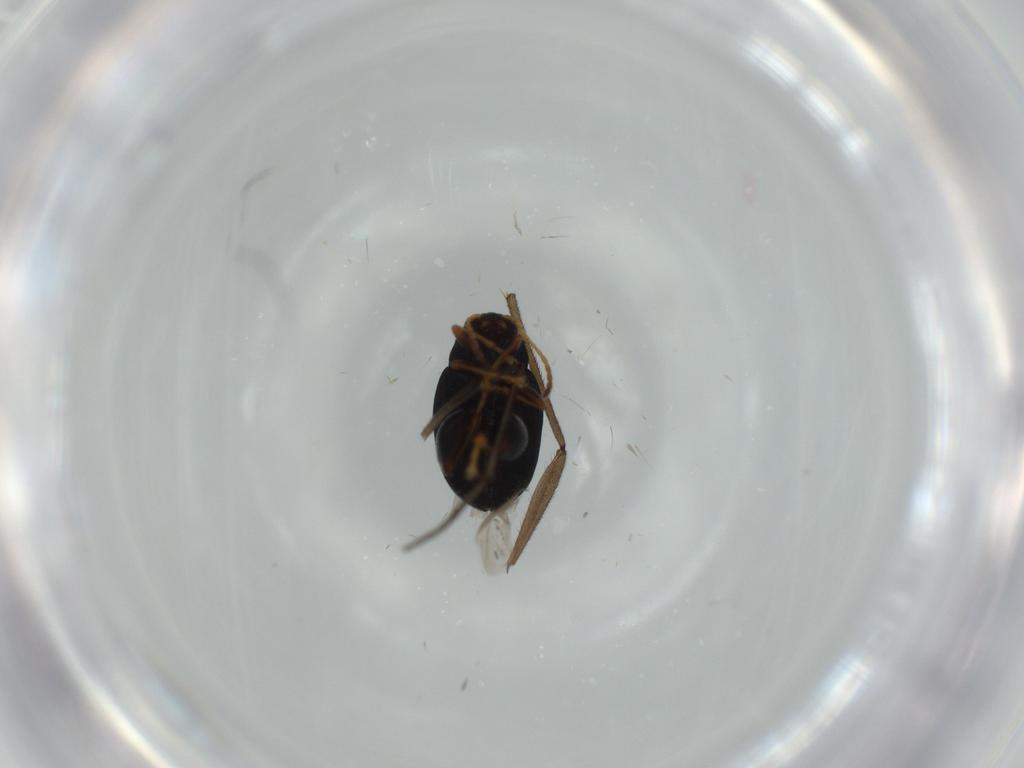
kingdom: Animalia
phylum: Arthropoda
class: Insecta
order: Coleoptera
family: Chrysomelidae
